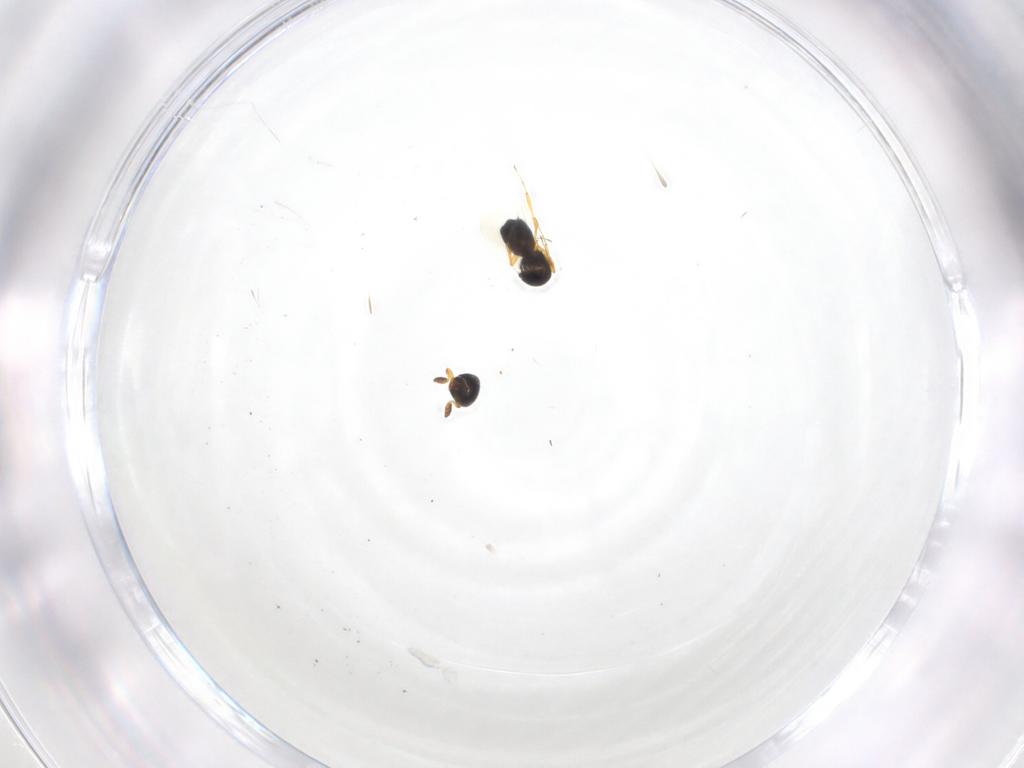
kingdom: Animalia
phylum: Arthropoda
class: Insecta
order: Hymenoptera
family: Platygastridae
